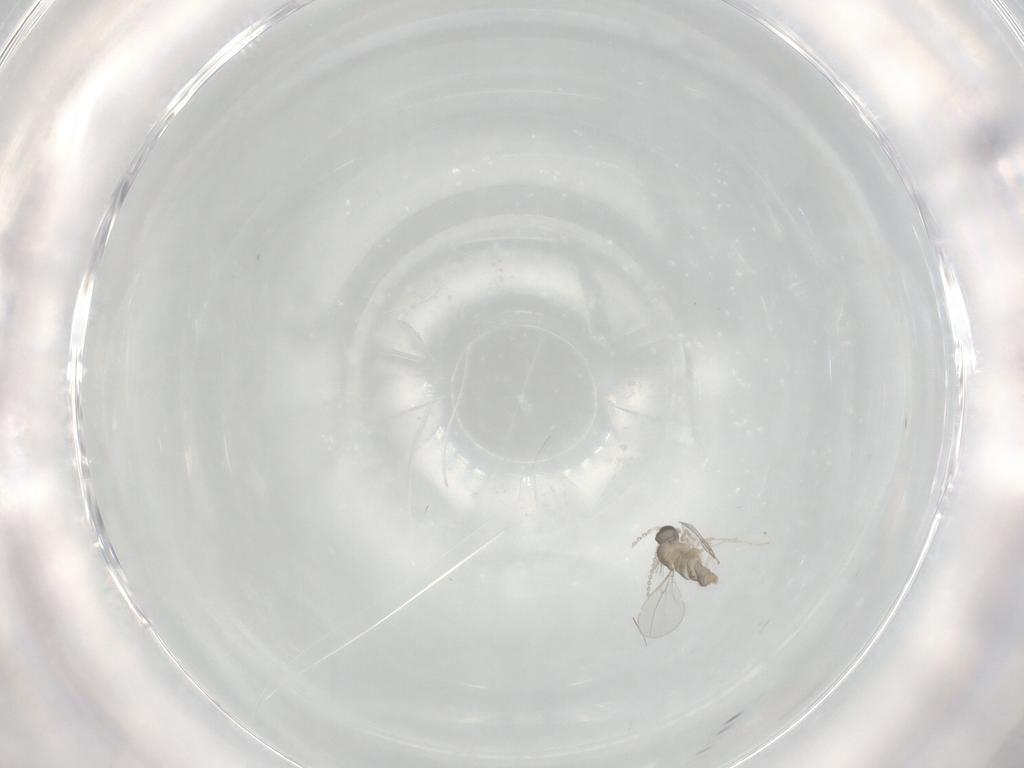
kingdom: Animalia
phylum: Arthropoda
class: Insecta
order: Diptera
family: Cecidomyiidae
